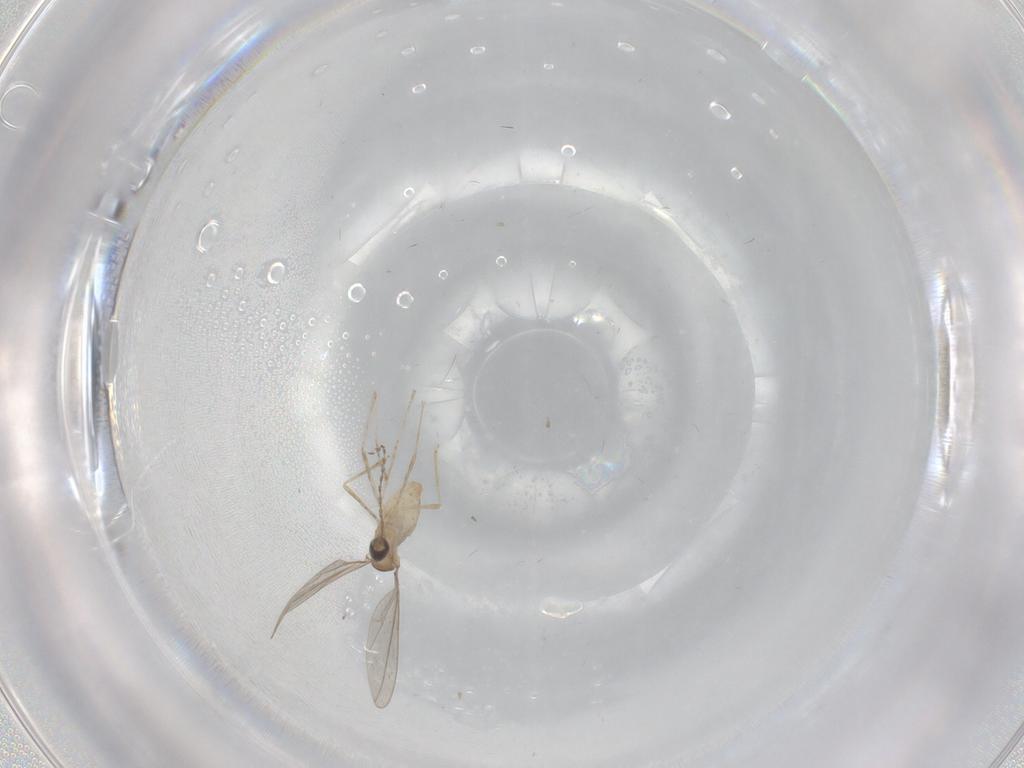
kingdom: Animalia
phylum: Arthropoda
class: Insecta
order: Diptera
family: Cecidomyiidae
